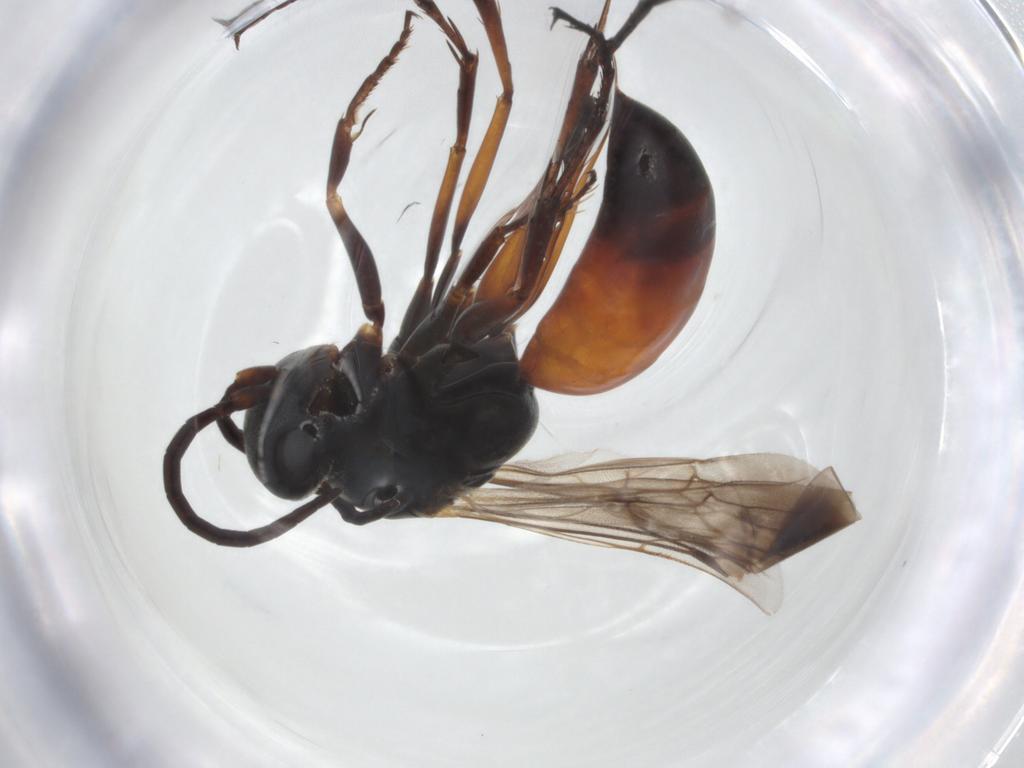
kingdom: Animalia
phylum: Arthropoda
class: Insecta
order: Hymenoptera
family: Pompilidae
